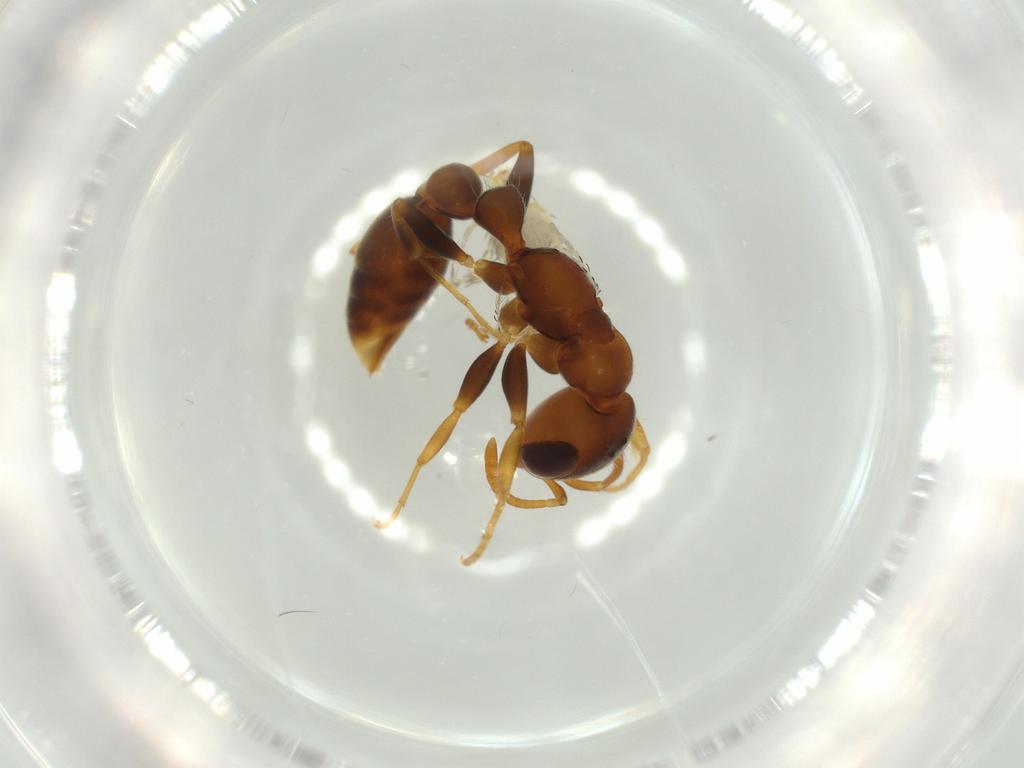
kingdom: Animalia
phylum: Arthropoda
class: Arachnida
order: Trombidiformes
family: Erythraeidae
